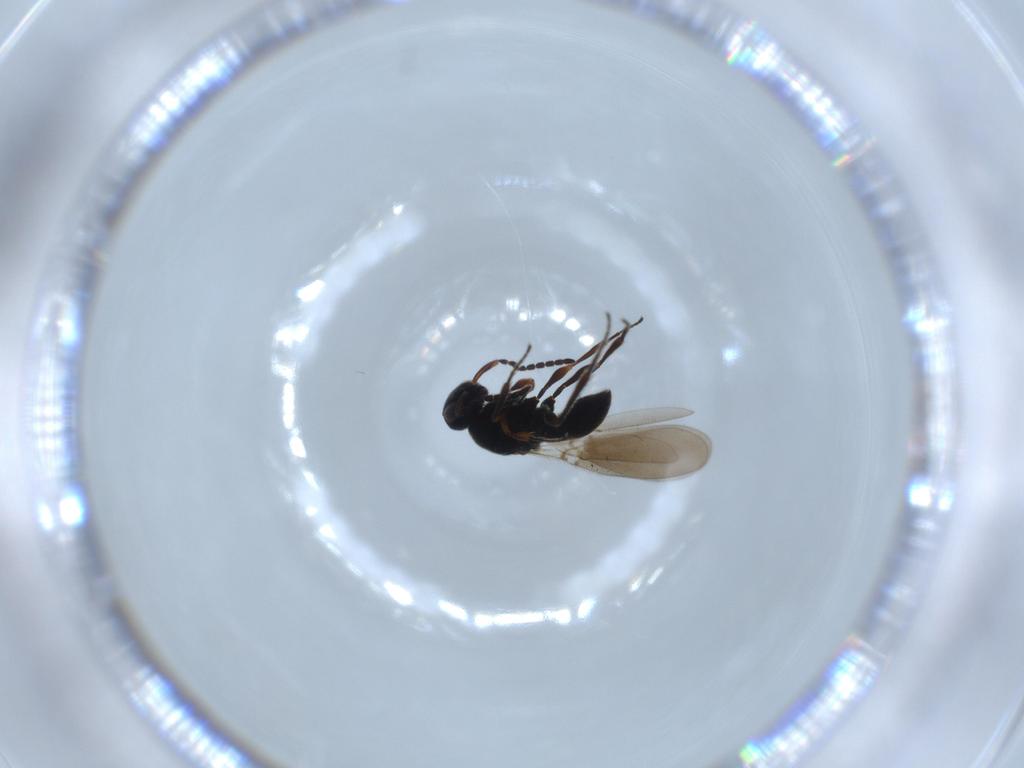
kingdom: Animalia
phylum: Arthropoda
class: Insecta
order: Hymenoptera
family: Platygastridae
